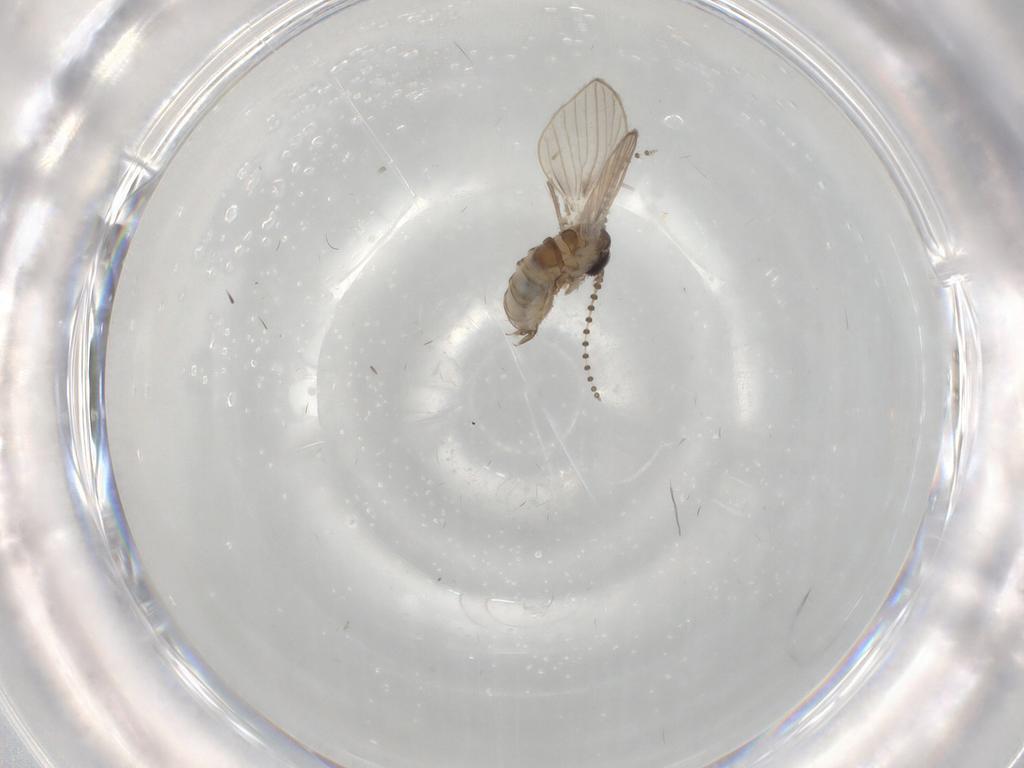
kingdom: Animalia
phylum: Arthropoda
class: Insecta
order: Diptera
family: Psychodidae
